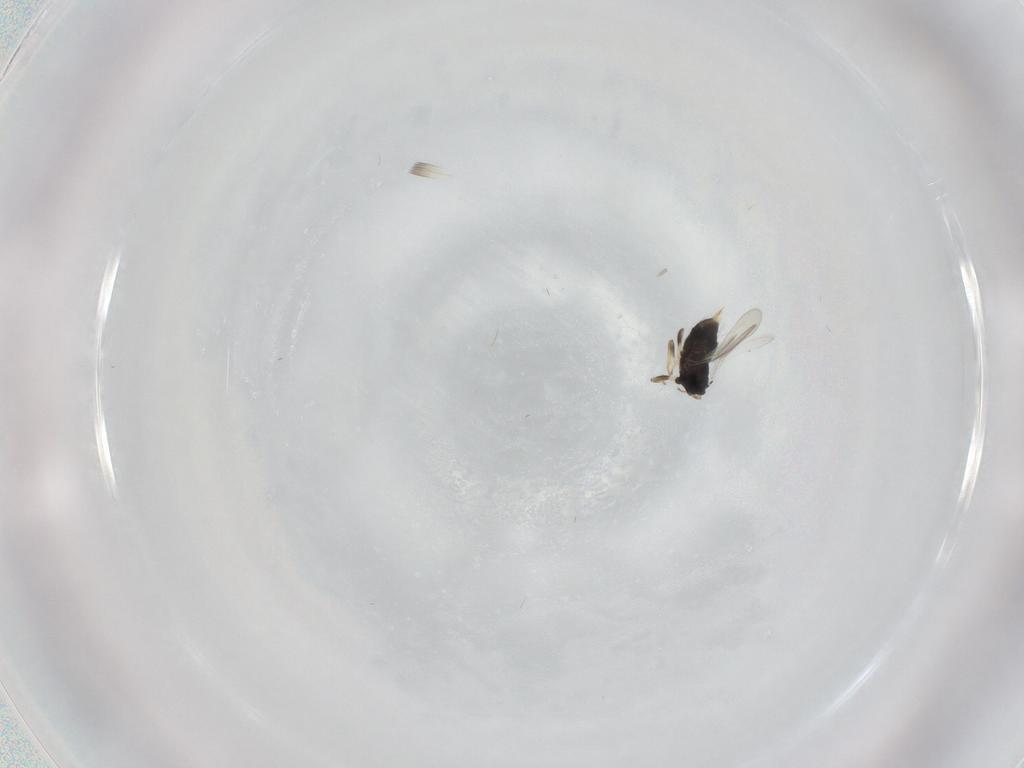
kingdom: Animalia
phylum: Arthropoda
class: Insecta
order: Hymenoptera
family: Aphelinidae
